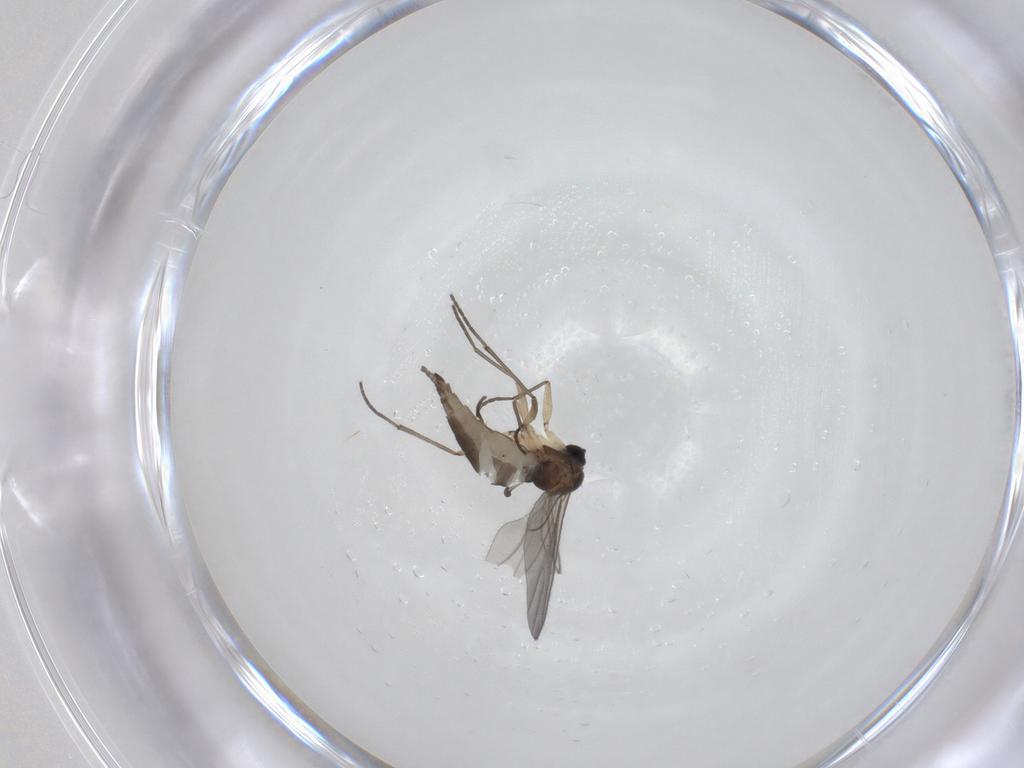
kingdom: Animalia
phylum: Arthropoda
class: Insecta
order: Diptera
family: Sciaridae
